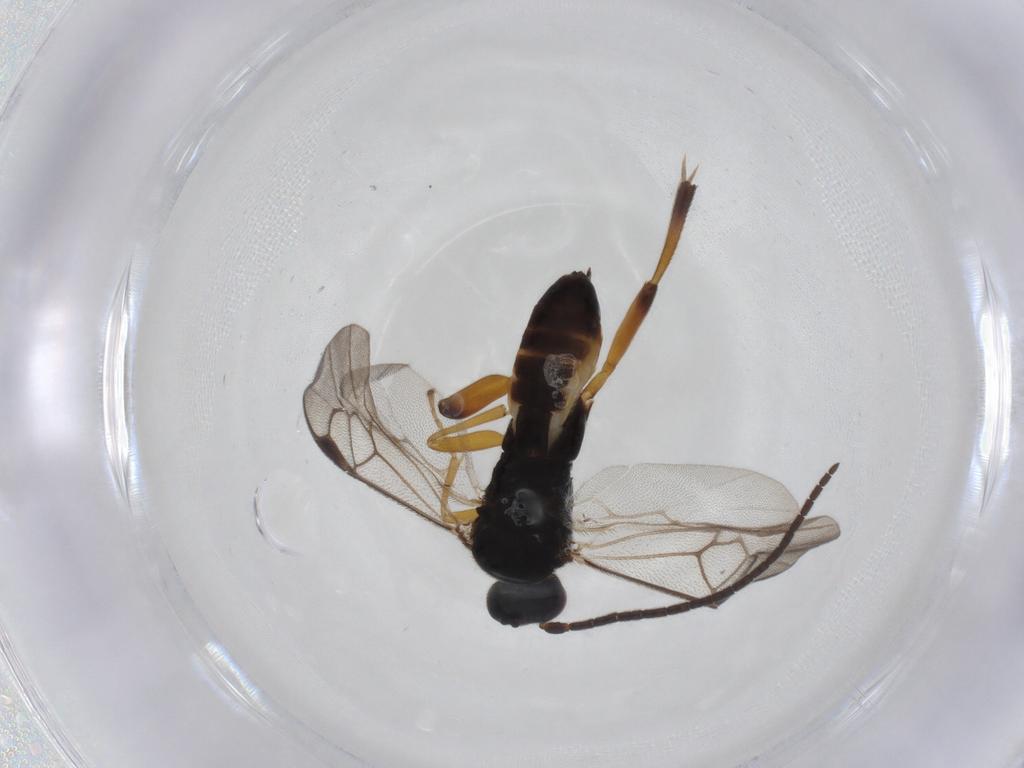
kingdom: Animalia
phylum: Arthropoda
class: Insecta
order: Hymenoptera
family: Braconidae
